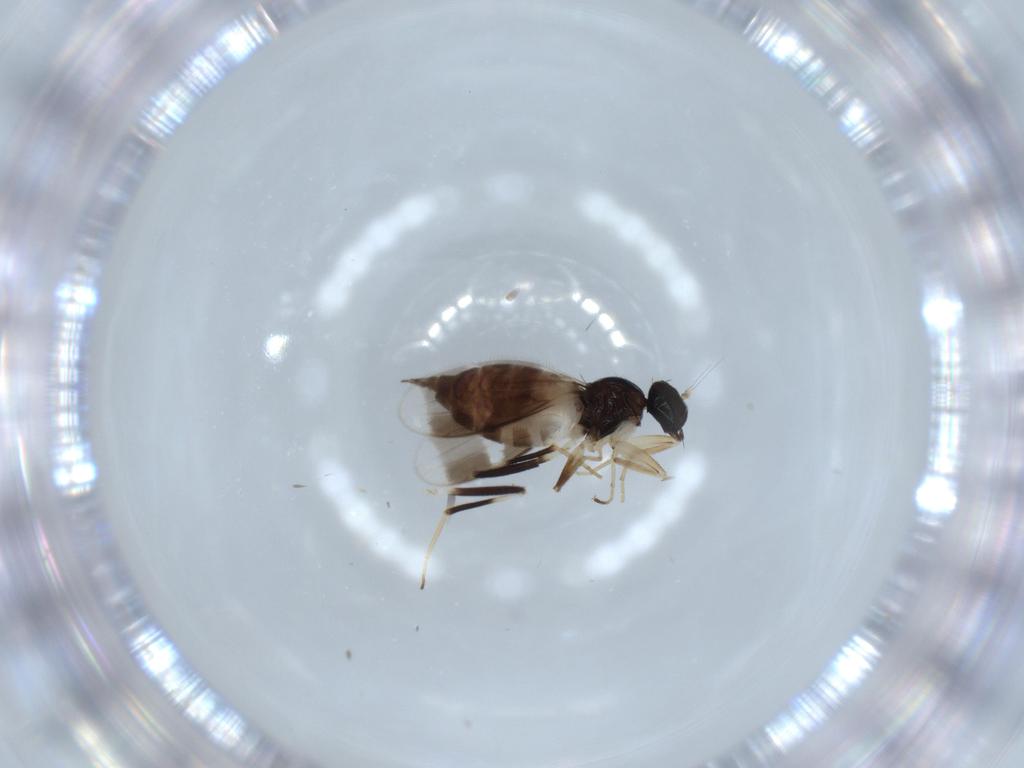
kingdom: Animalia
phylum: Arthropoda
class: Insecta
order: Diptera
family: Hybotidae
